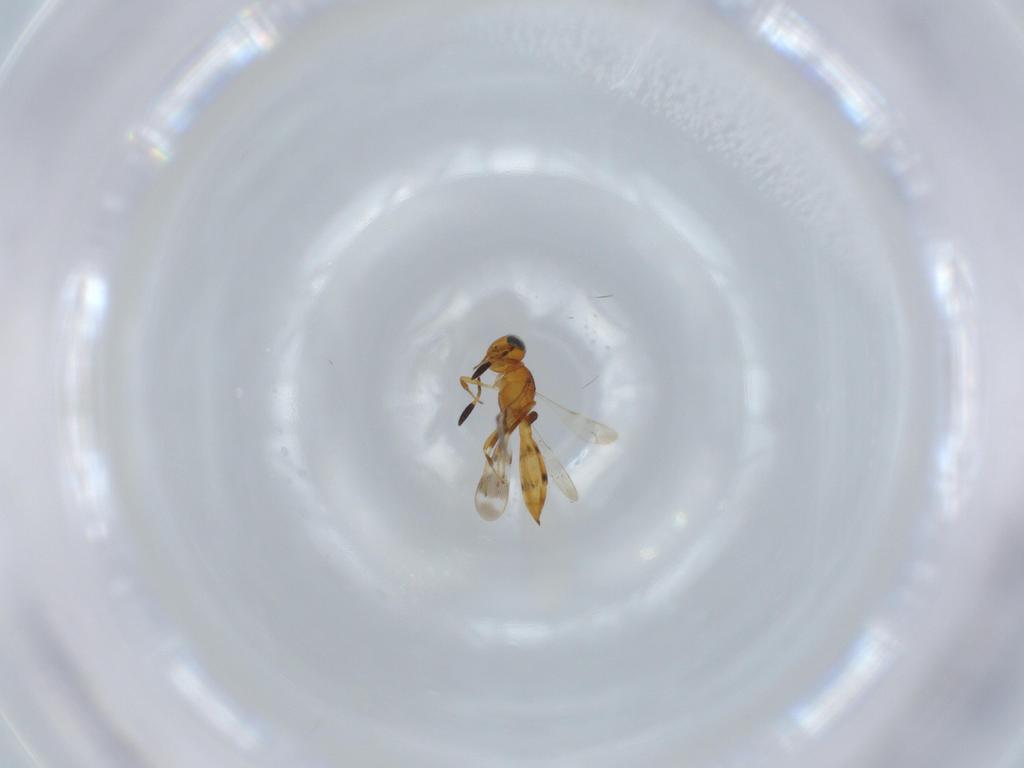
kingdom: Animalia
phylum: Arthropoda
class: Insecta
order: Hymenoptera
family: Scelionidae
